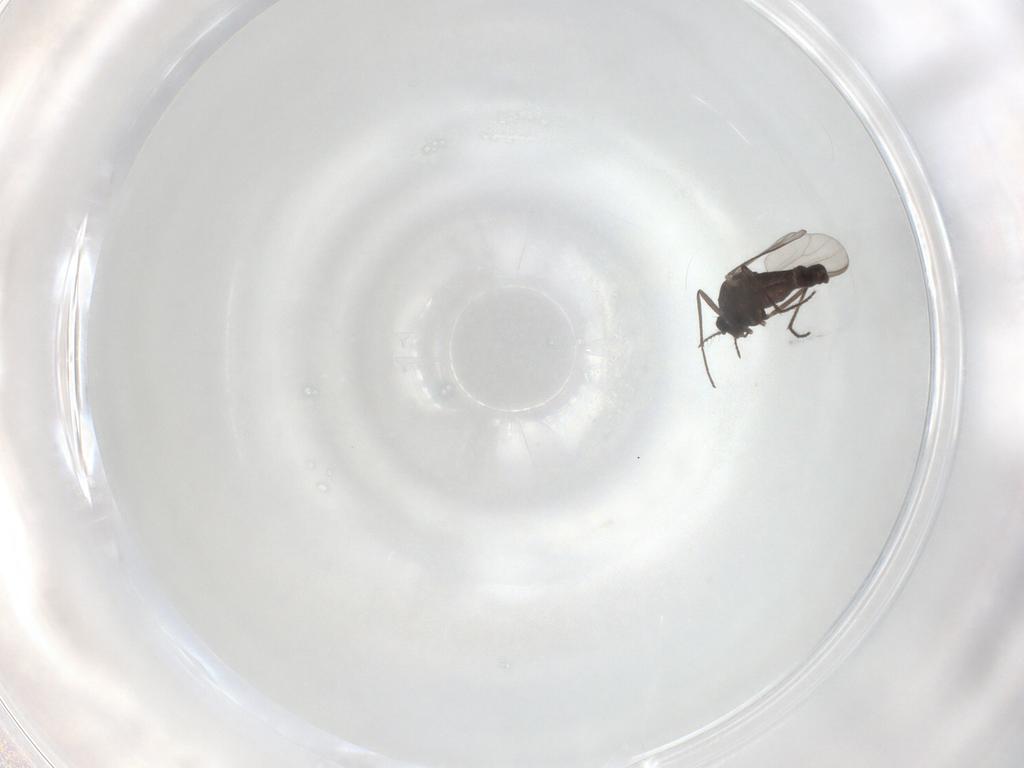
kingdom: Animalia
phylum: Arthropoda
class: Insecta
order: Diptera
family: Chironomidae
